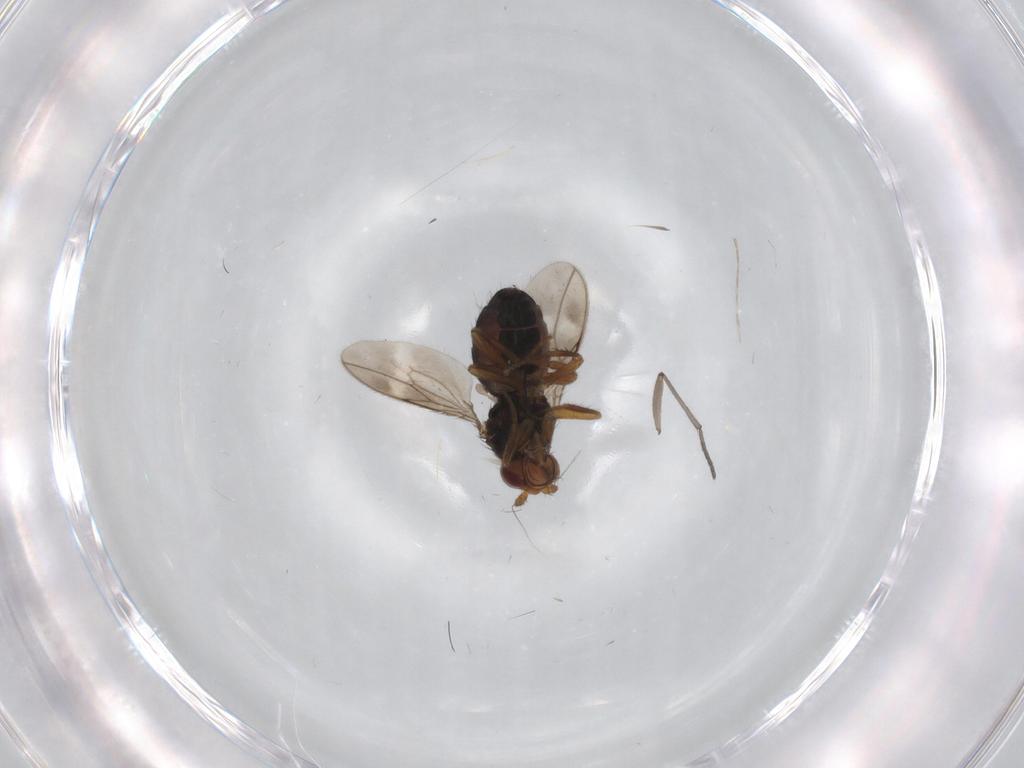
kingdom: Animalia
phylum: Arthropoda
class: Insecta
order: Diptera
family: Sphaeroceridae
